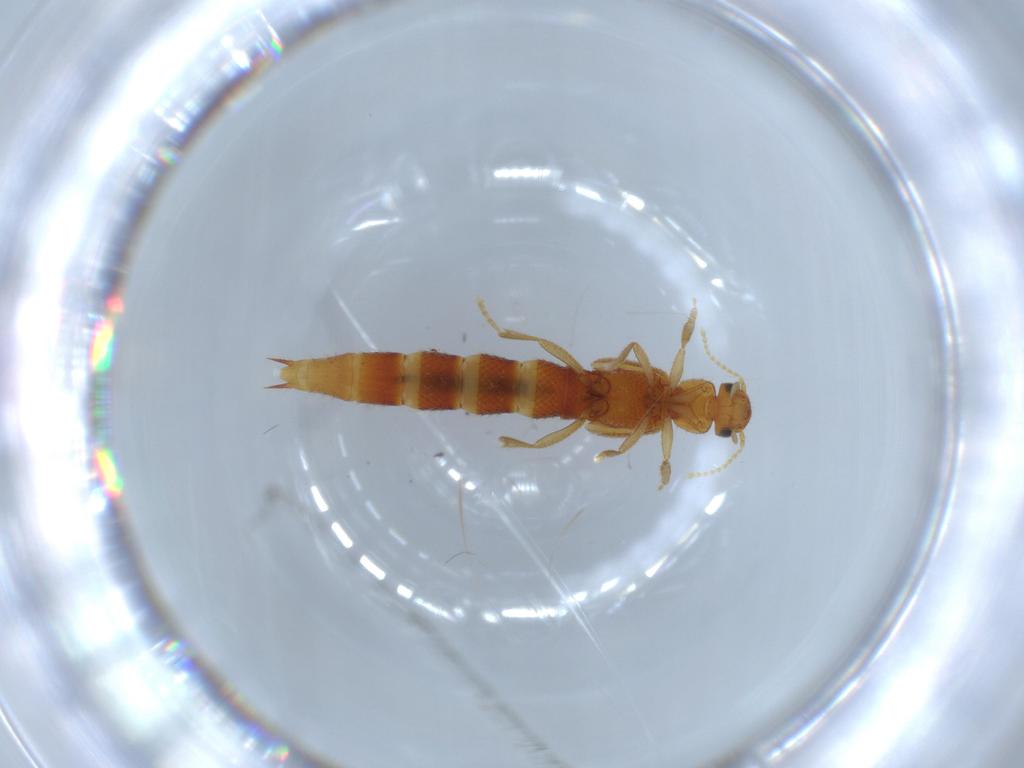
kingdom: Animalia
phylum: Arthropoda
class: Insecta
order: Coleoptera
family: Staphylinidae
